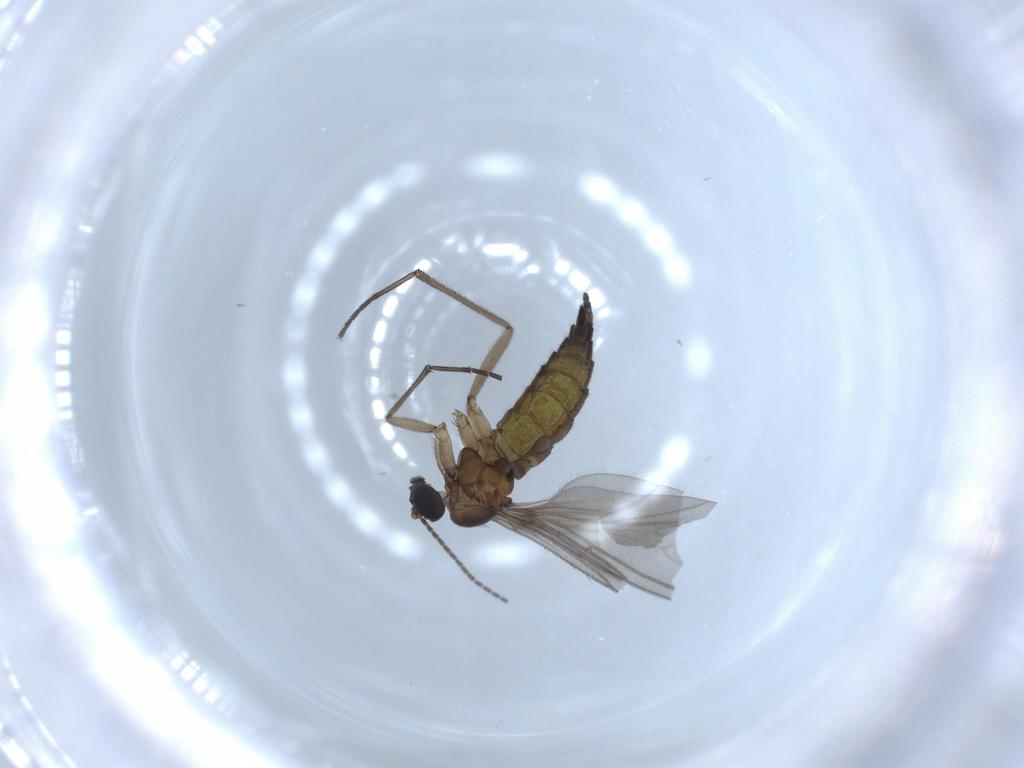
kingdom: Animalia
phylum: Arthropoda
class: Insecta
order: Diptera
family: Sciaridae
